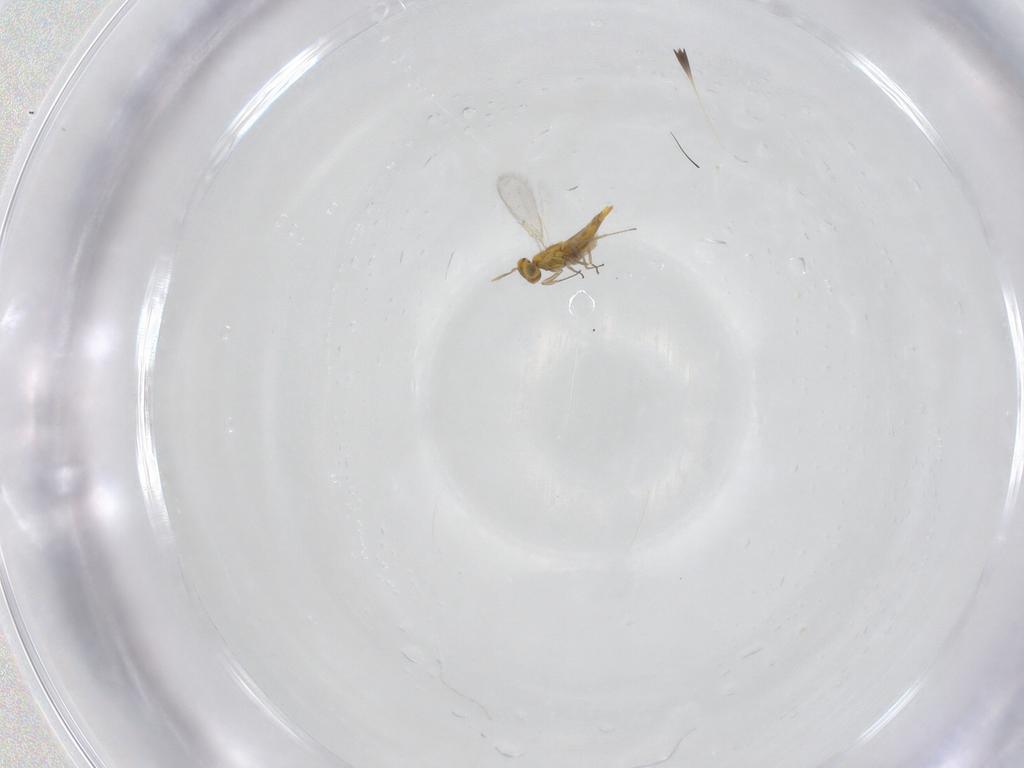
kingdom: Animalia
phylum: Arthropoda
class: Insecta
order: Hymenoptera
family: Aphelinidae
